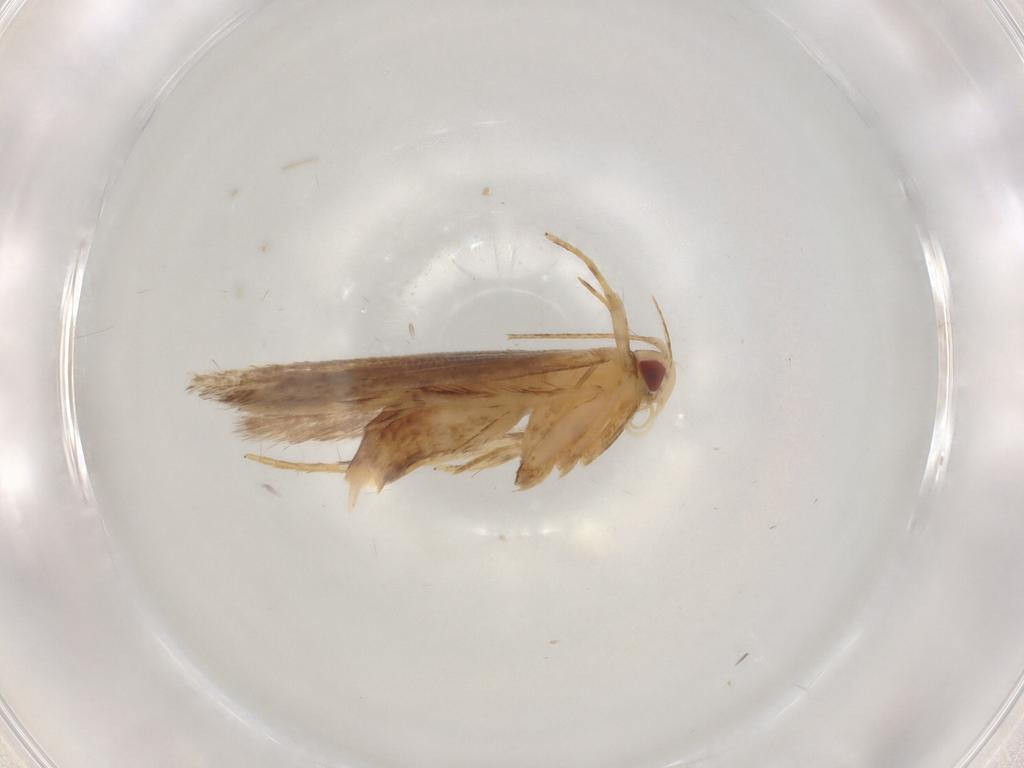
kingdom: Animalia
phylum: Arthropoda
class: Insecta
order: Lepidoptera
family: Cosmopterigidae
